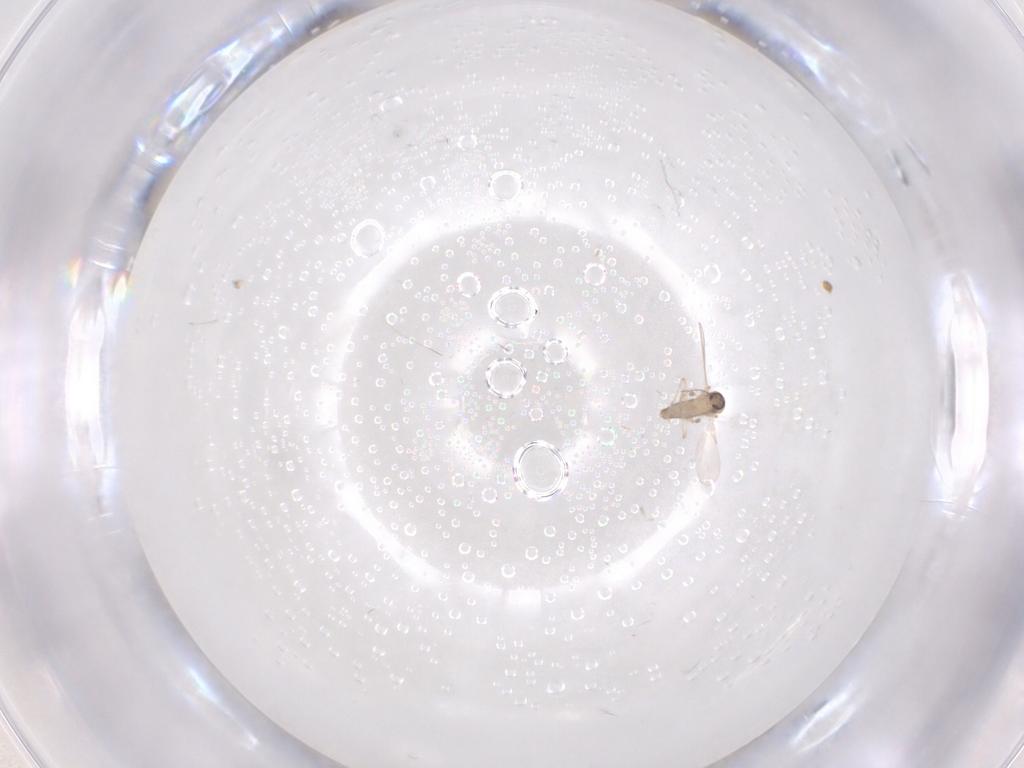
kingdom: Animalia
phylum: Arthropoda
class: Insecta
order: Diptera
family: Ceratopogonidae
